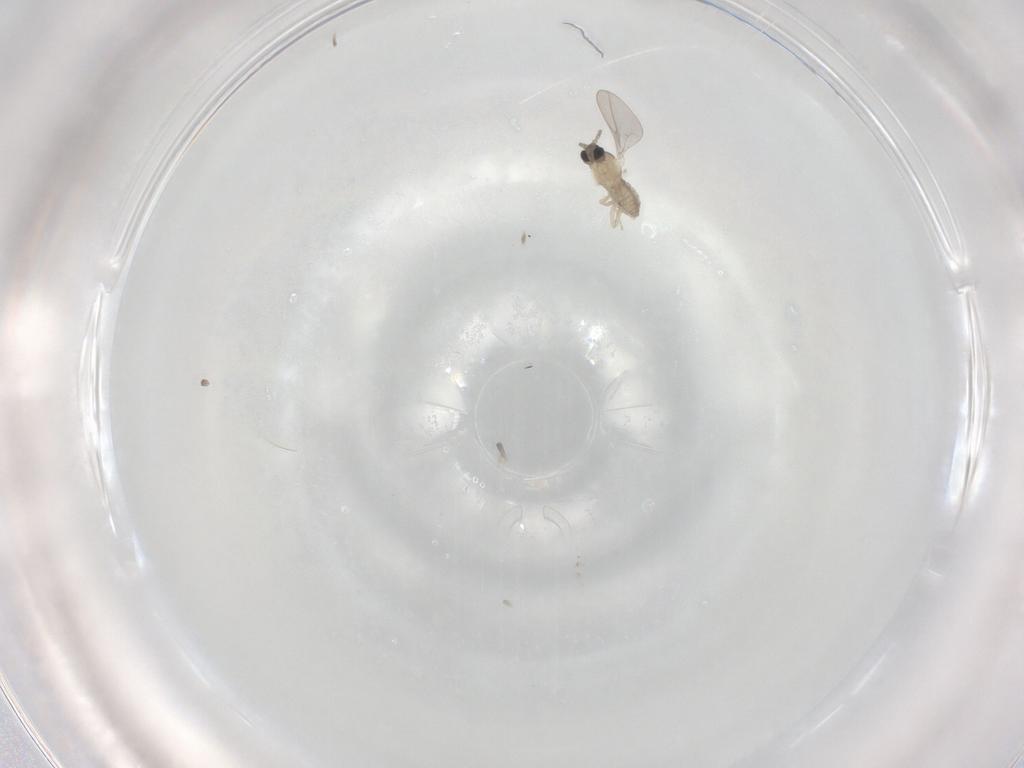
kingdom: Animalia
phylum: Arthropoda
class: Insecta
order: Diptera
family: Cecidomyiidae
